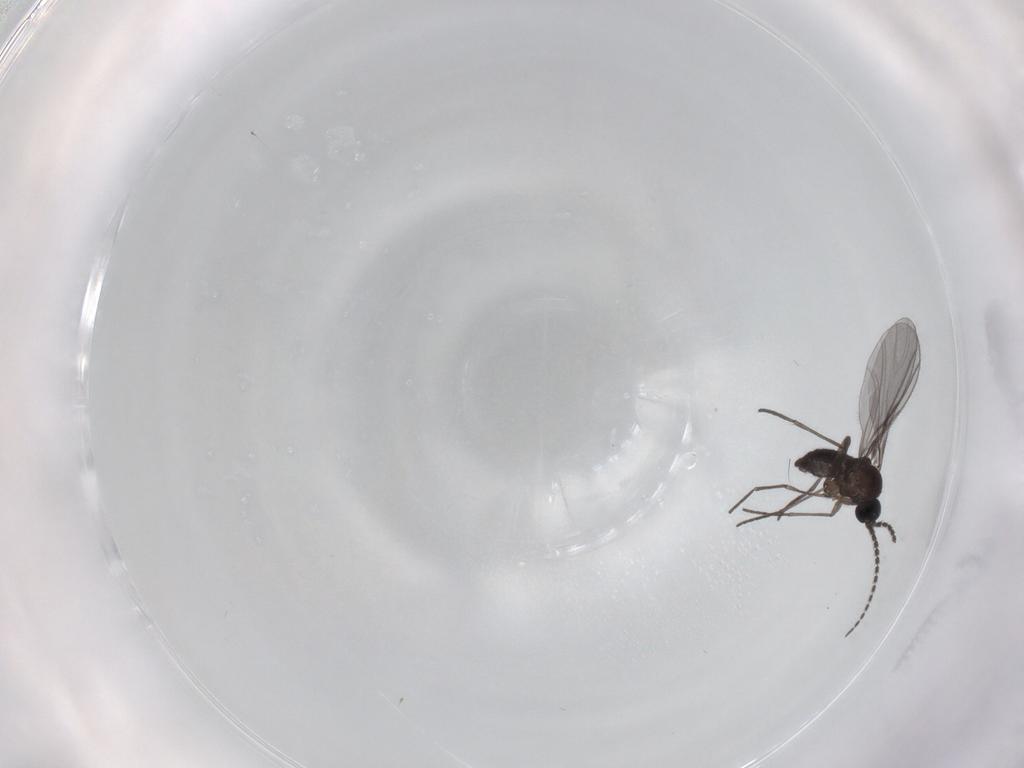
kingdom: Animalia
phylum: Arthropoda
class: Insecta
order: Diptera
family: Sciaridae
